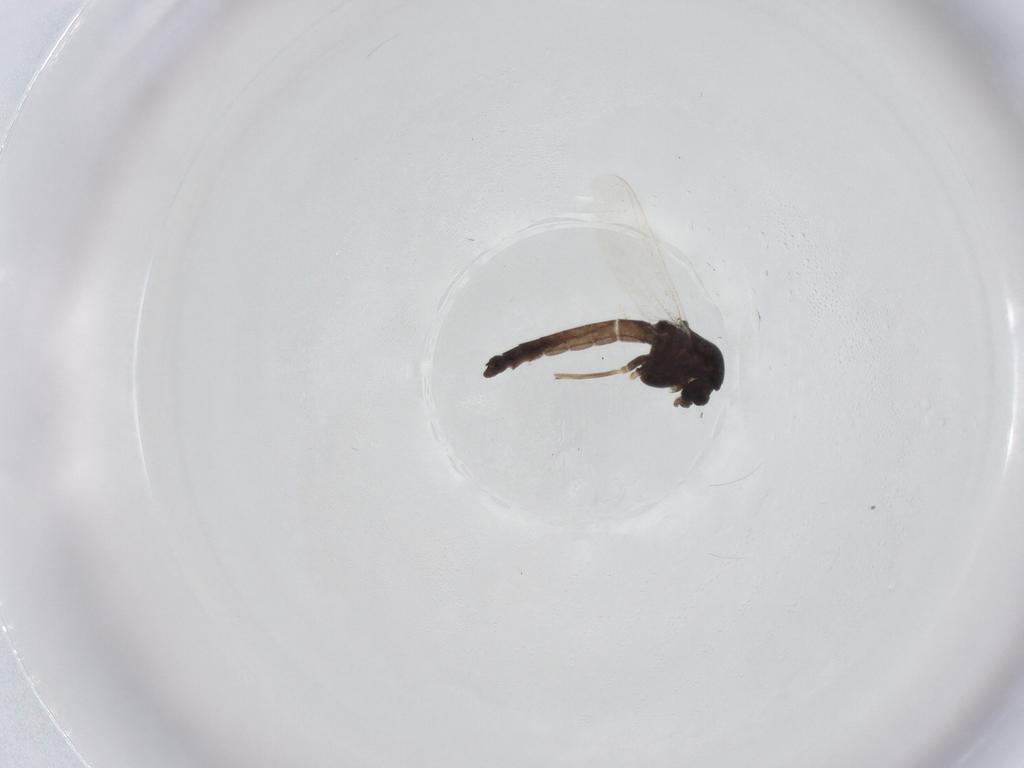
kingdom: Animalia
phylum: Arthropoda
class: Insecta
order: Diptera
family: Chironomidae
